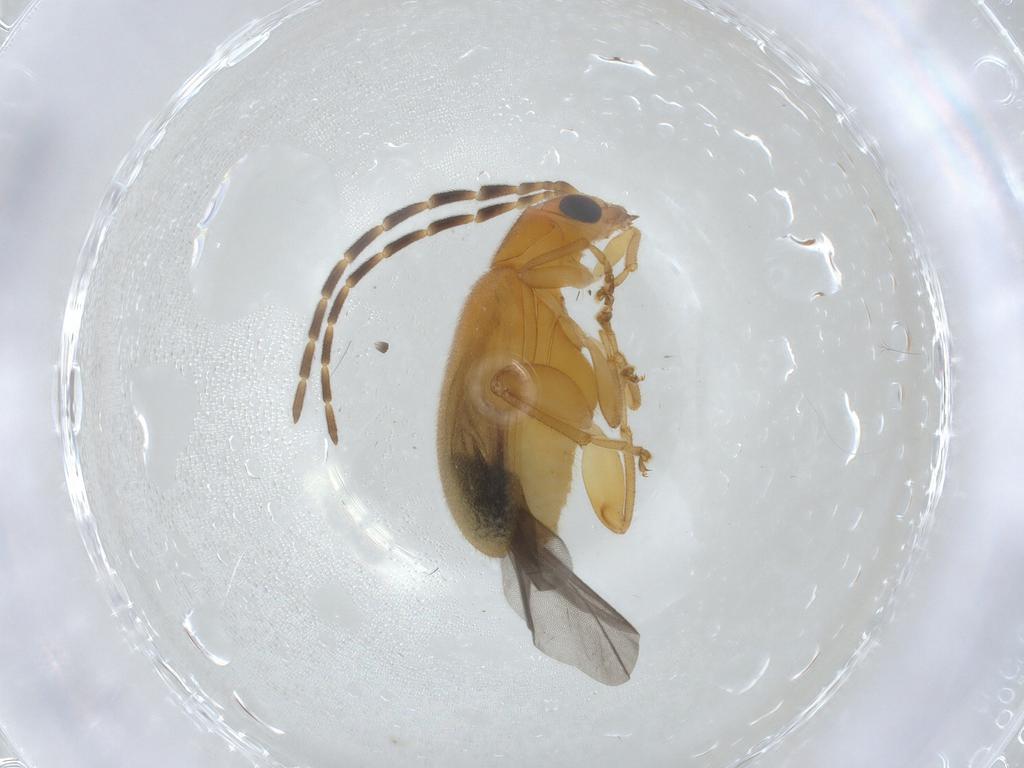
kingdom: Animalia
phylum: Arthropoda
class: Insecta
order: Coleoptera
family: Chrysomelidae
